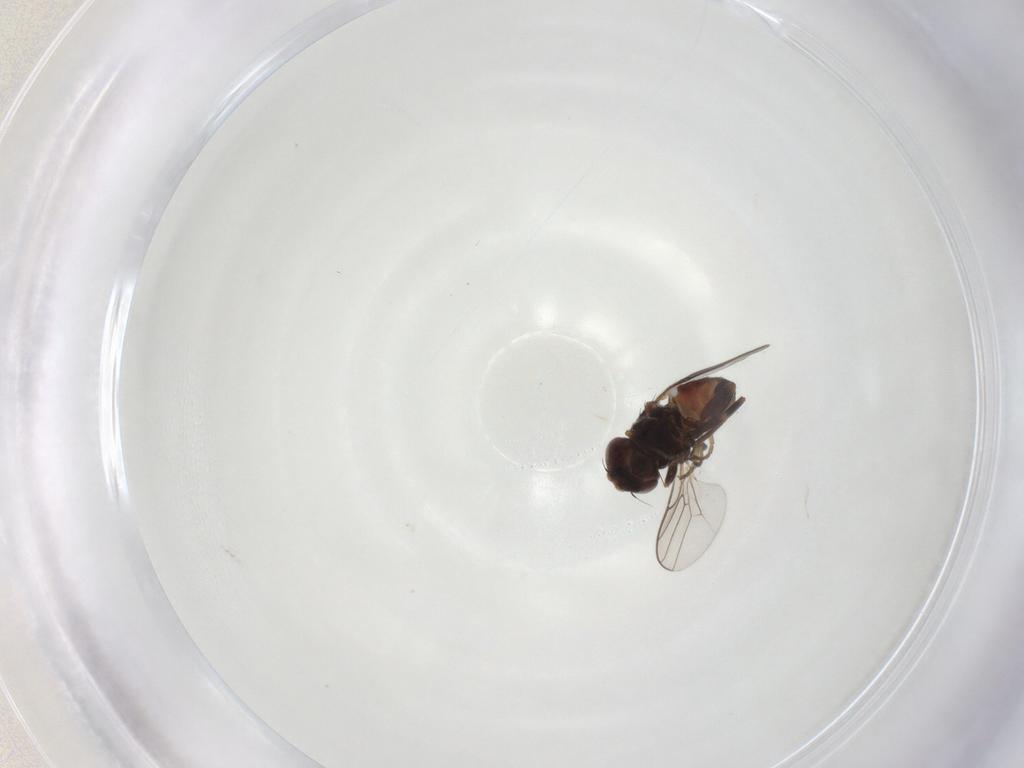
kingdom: Animalia
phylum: Arthropoda
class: Insecta
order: Diptera
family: Chloropidae
